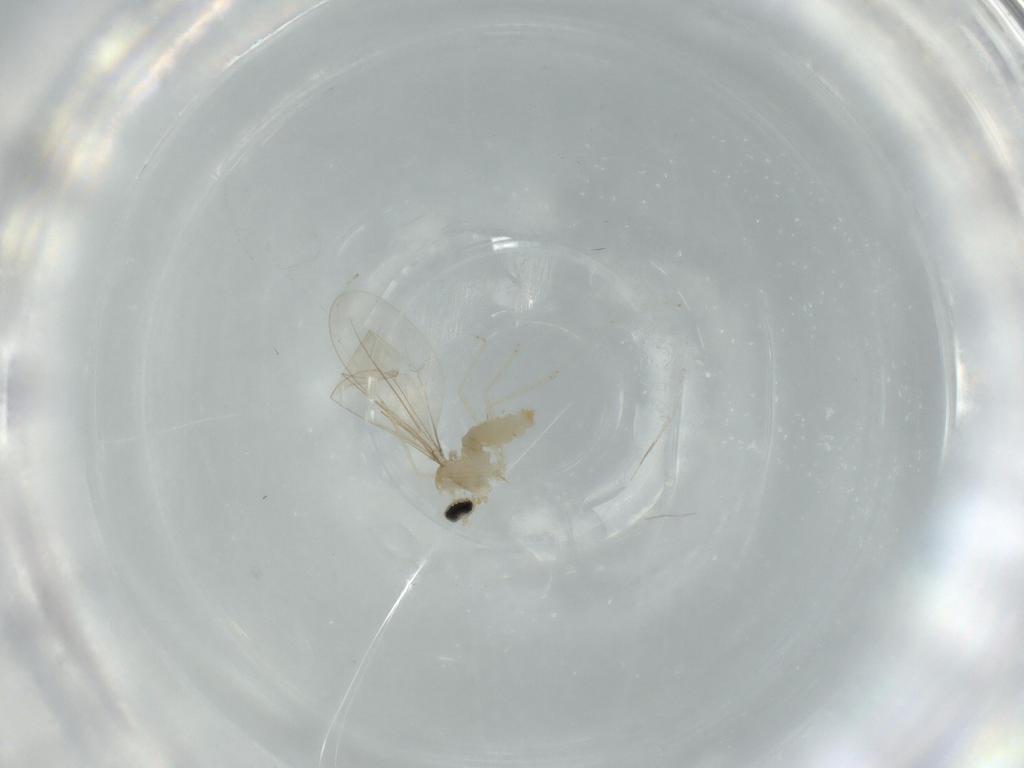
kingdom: Animalia
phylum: Arthropoda
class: Insecta
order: Diptera
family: Cecidomyiidae
